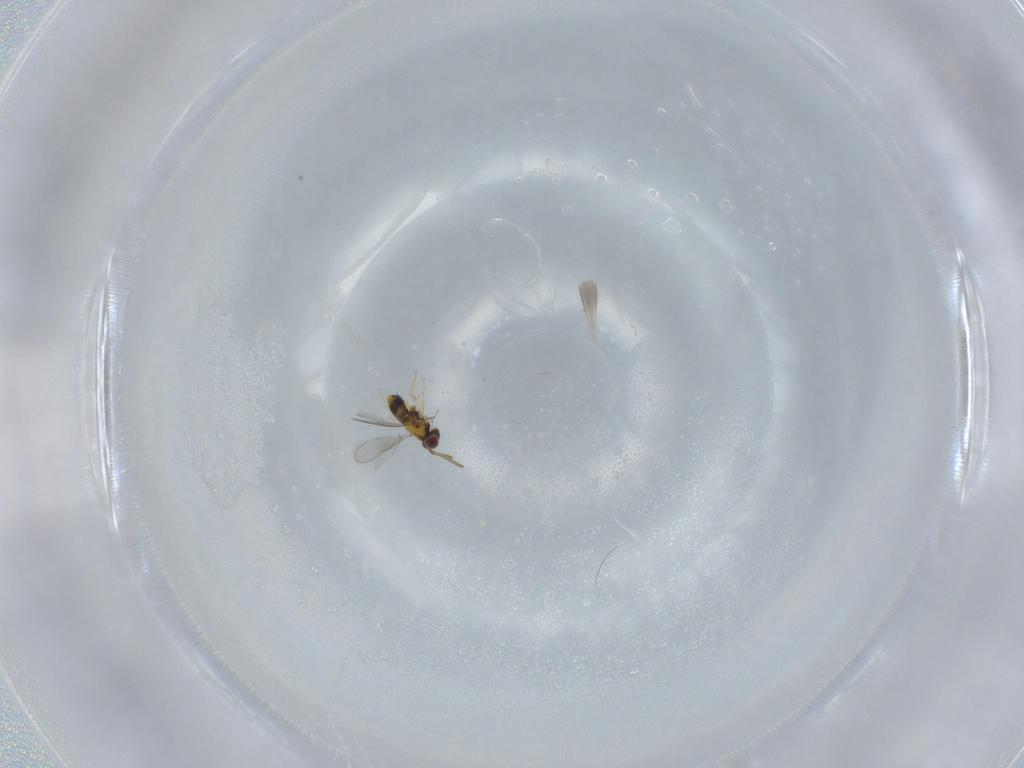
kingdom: Animalia
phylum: Arthropoda
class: Insecta
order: Hymenoptera
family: Aphelinidae
